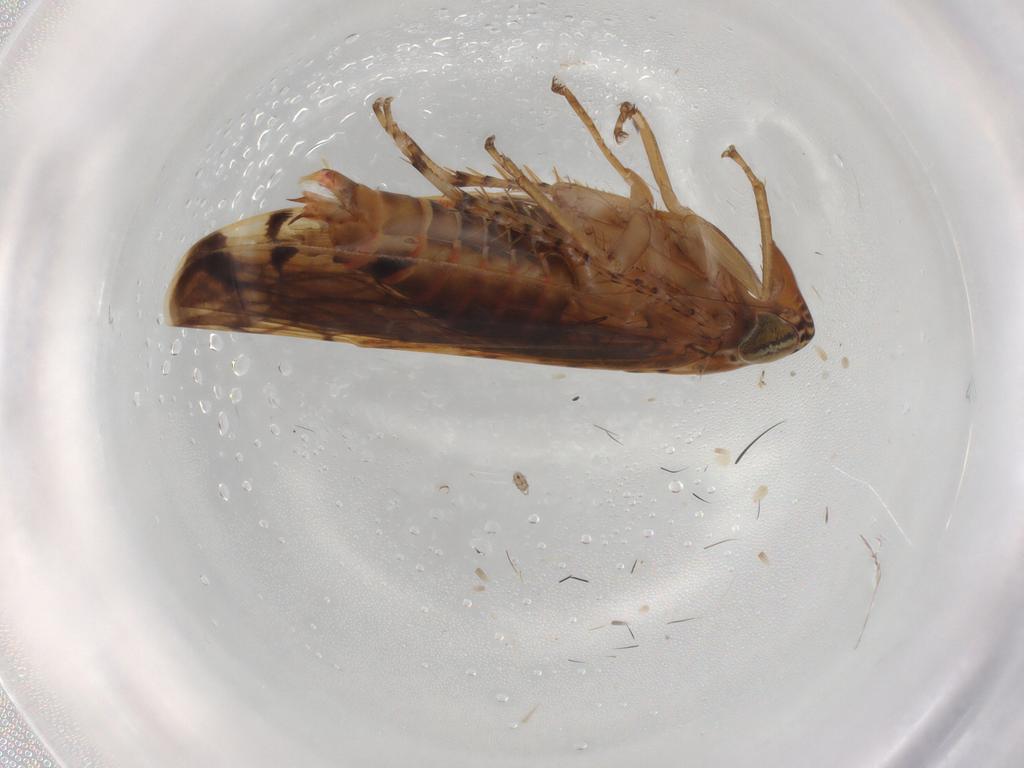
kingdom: Animalia
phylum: Arthropoda
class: Insecta
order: Hemiptera
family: Cicadellidae
